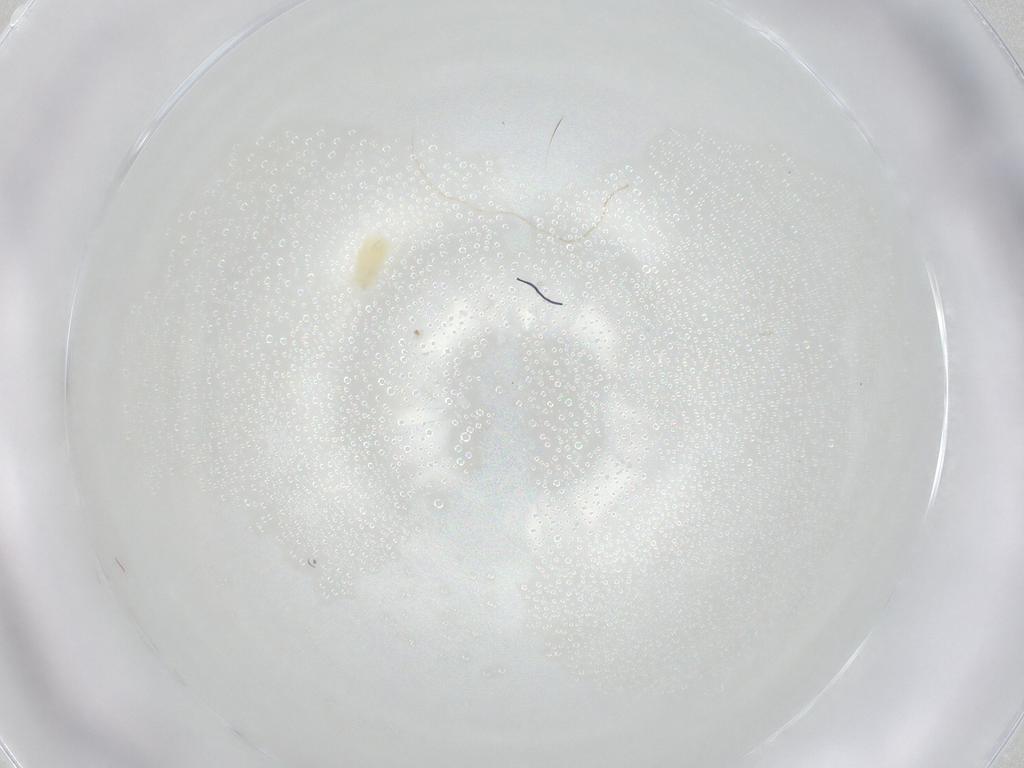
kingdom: Animalia
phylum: Arthropoda
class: Arachnida
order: Trombidiformes
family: Tetranychidae
